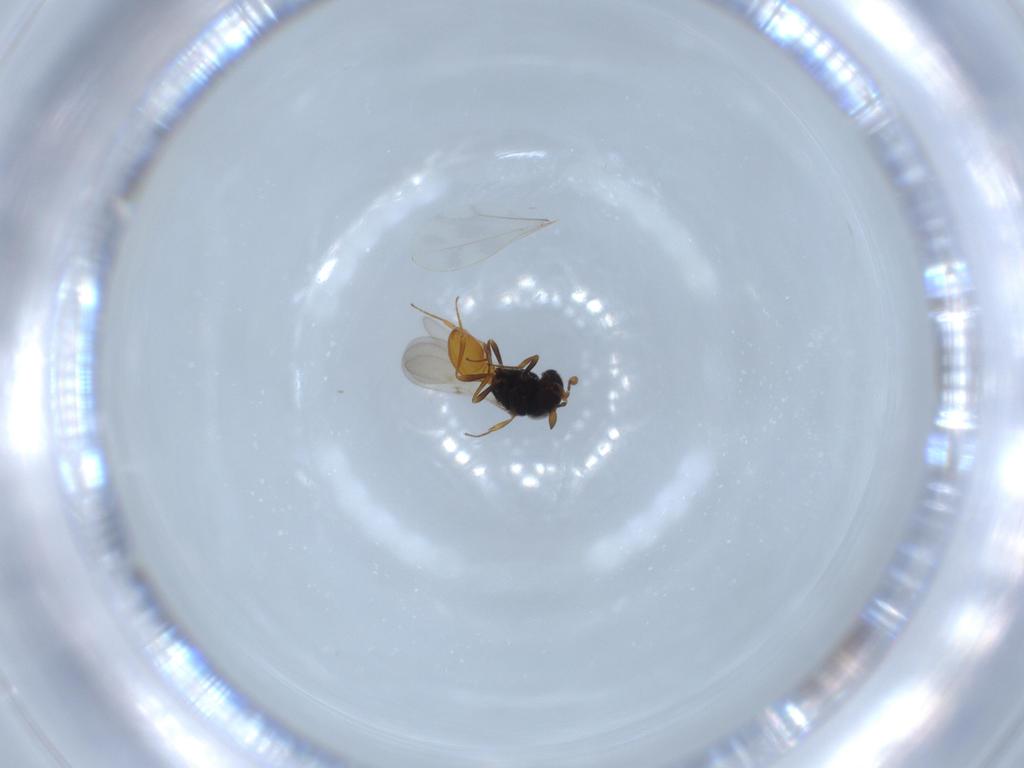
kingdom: Animalia
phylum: Arthropoda
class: Insecta
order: Hymenoptera
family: Scelionidae
